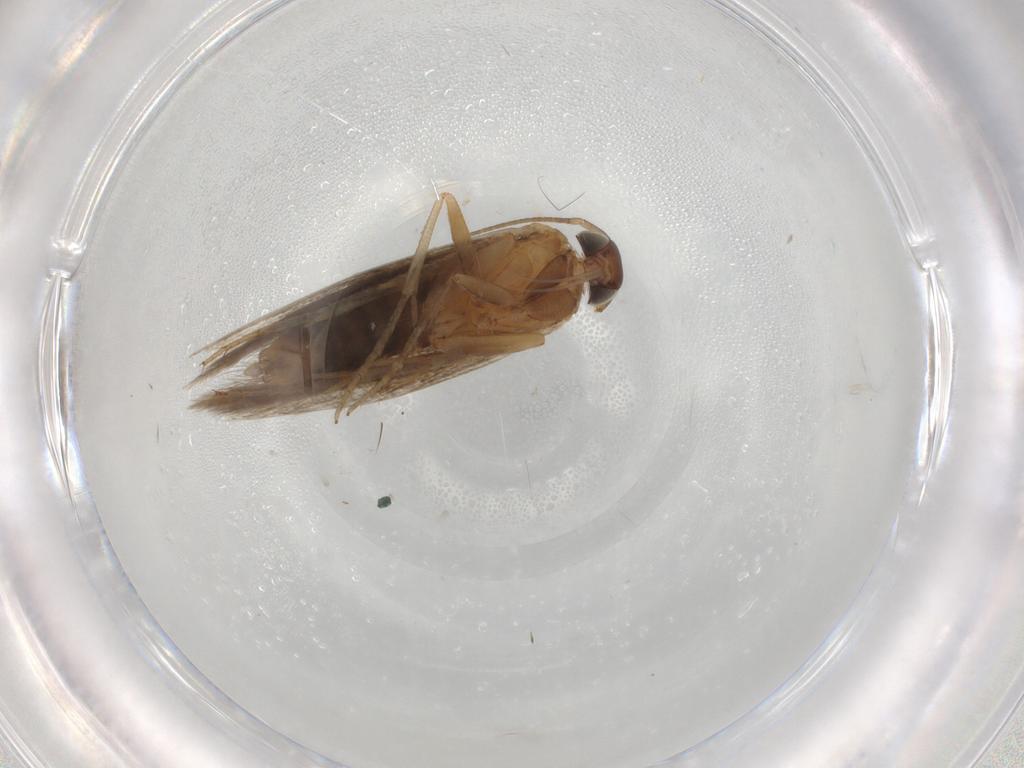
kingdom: Animalia
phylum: Arthropoda
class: Insecta
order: Lepidoptera
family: Gelechiidae
